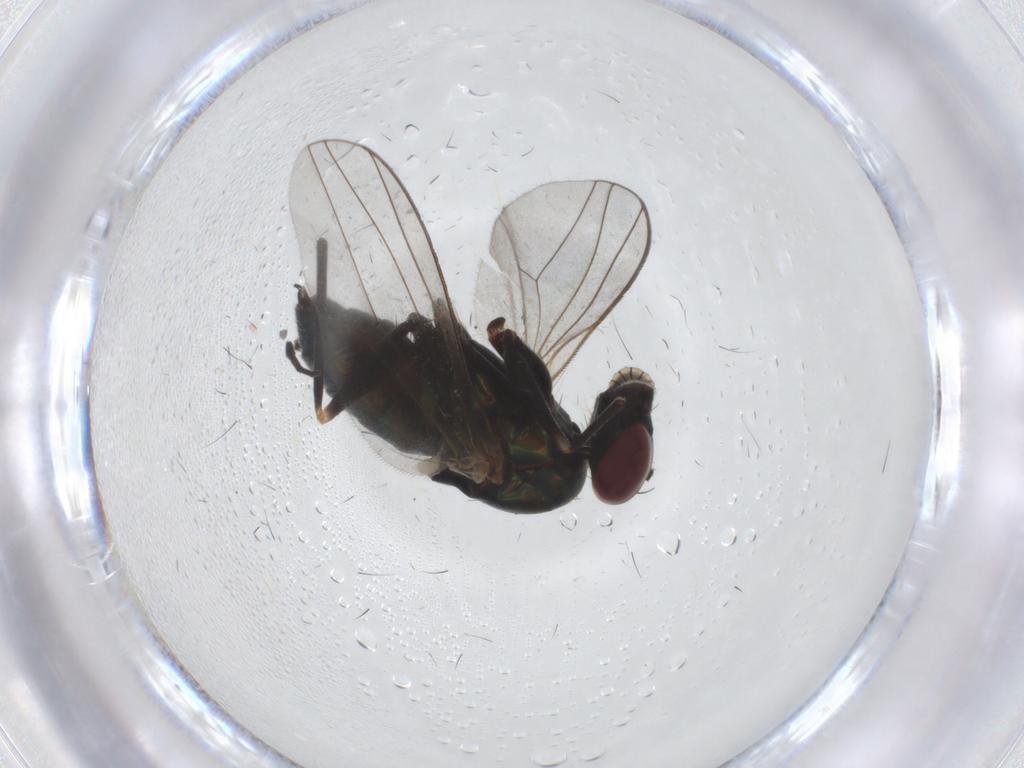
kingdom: Animalia
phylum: Arthropoda
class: Insecta
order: Diptera
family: Dolichopodidae
